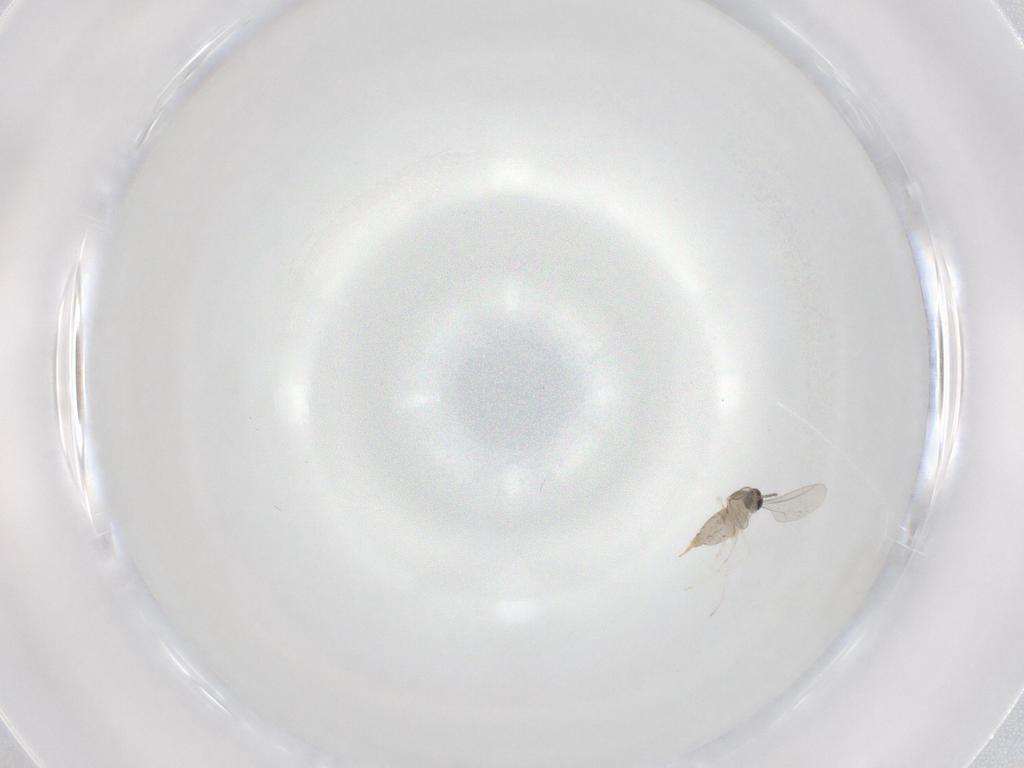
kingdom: Animalia
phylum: Arthropoda
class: Insecta
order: Diptera
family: Cecidomyiidae
